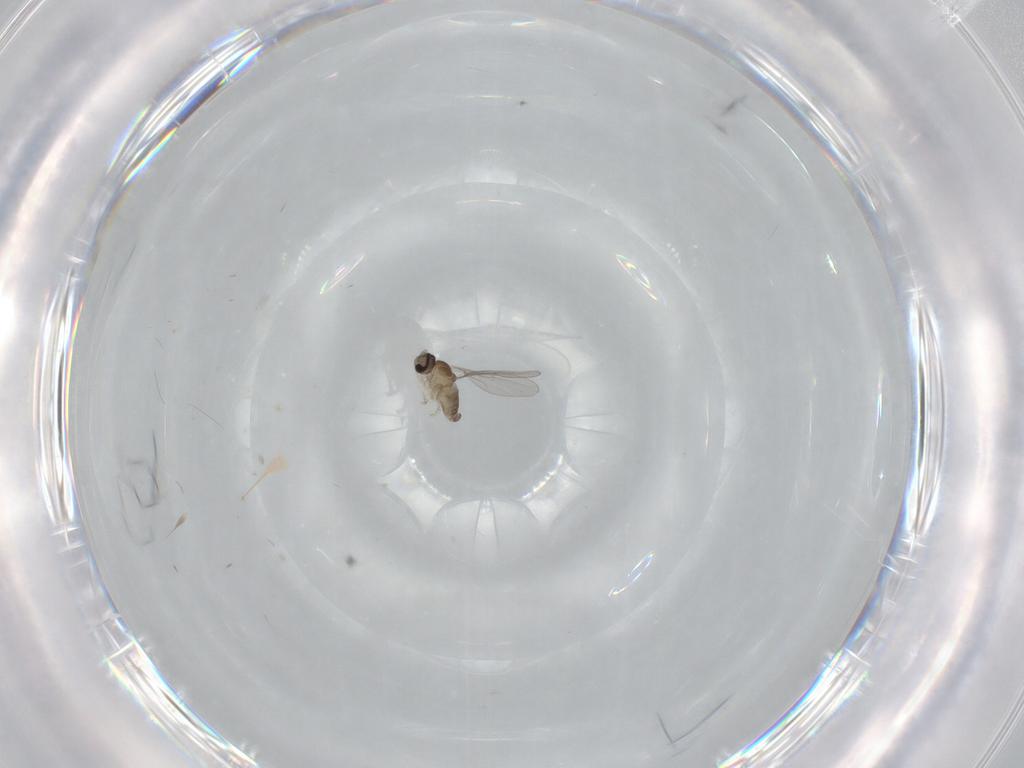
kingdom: Animalia
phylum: Arthropoda
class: Insecta
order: Diptera
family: Cecidomyiidae
